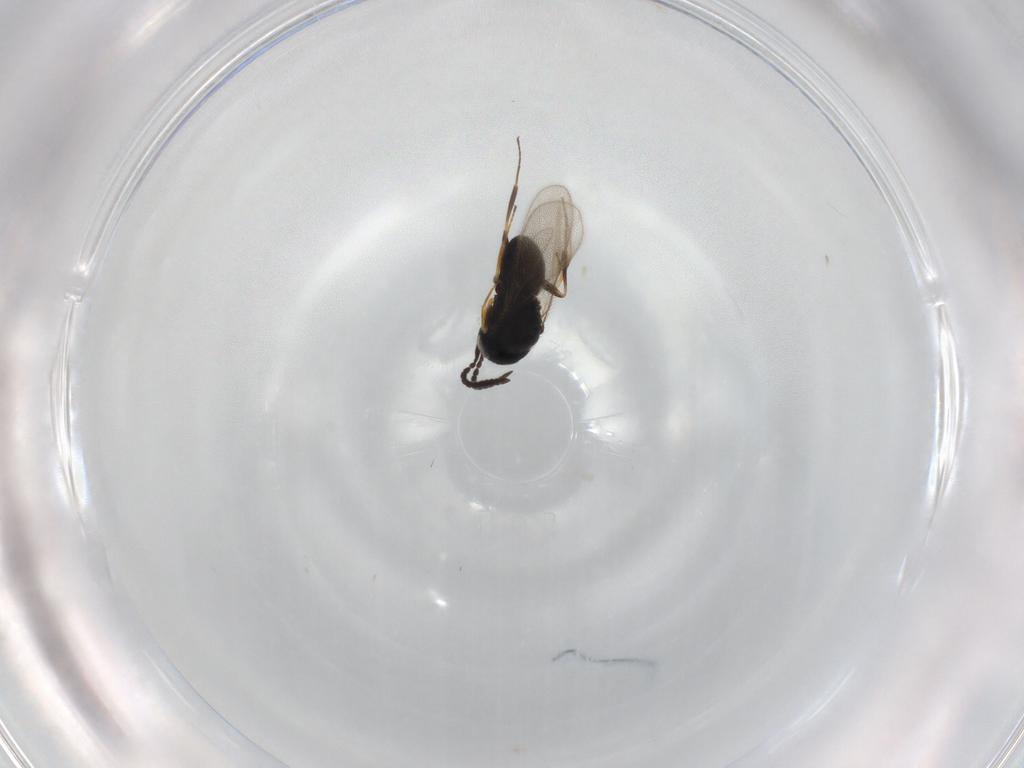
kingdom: Animalia
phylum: Arthropoda
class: Insecta
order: Hymenoptera
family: Scelionidae
